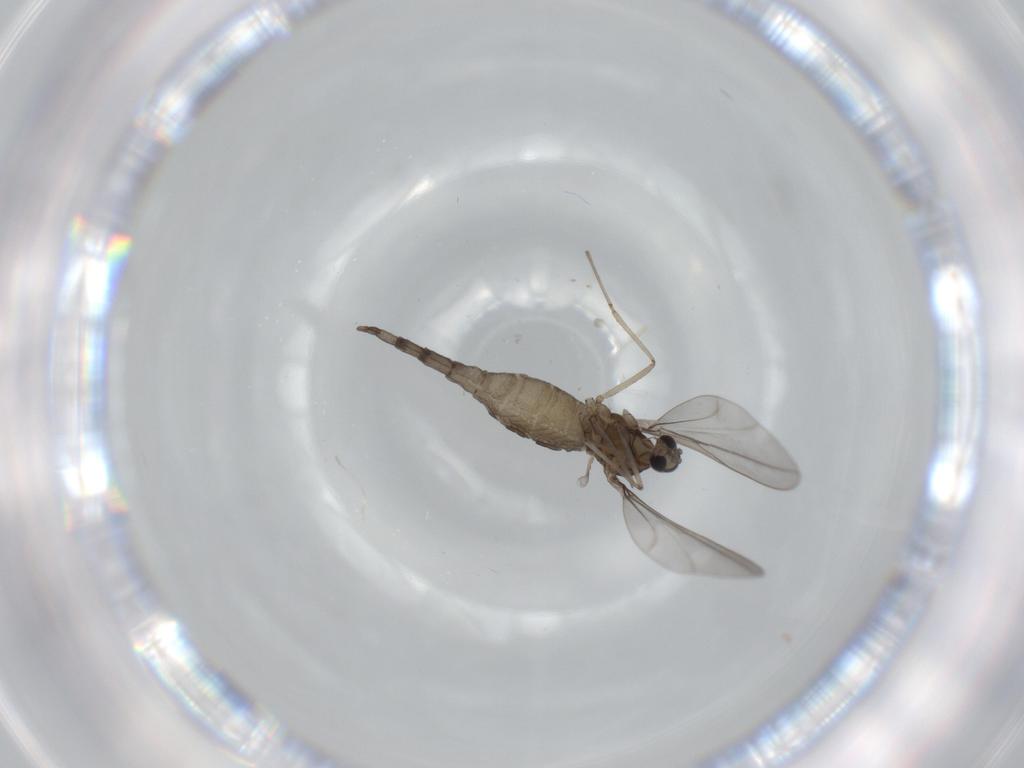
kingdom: Animalia
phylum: Arthropoda
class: Insecta
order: Diptera
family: Cecidomyiidae
